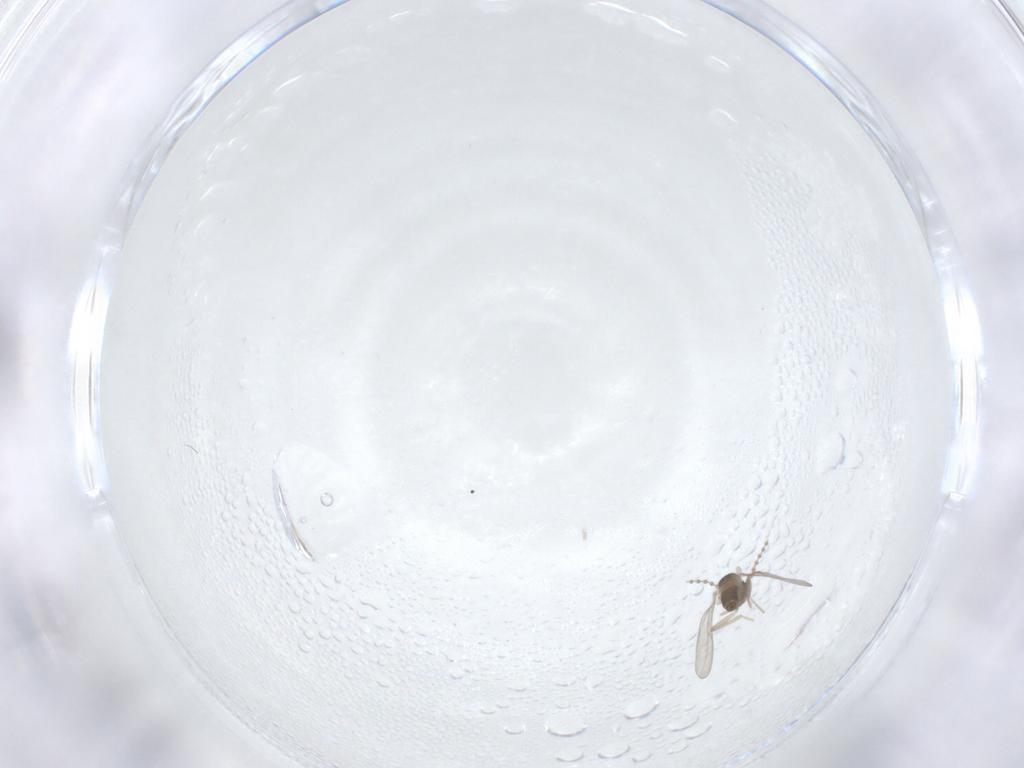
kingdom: Animalia
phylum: Arthropoda
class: Insecta
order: Diptera
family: Cecidomyiidae
